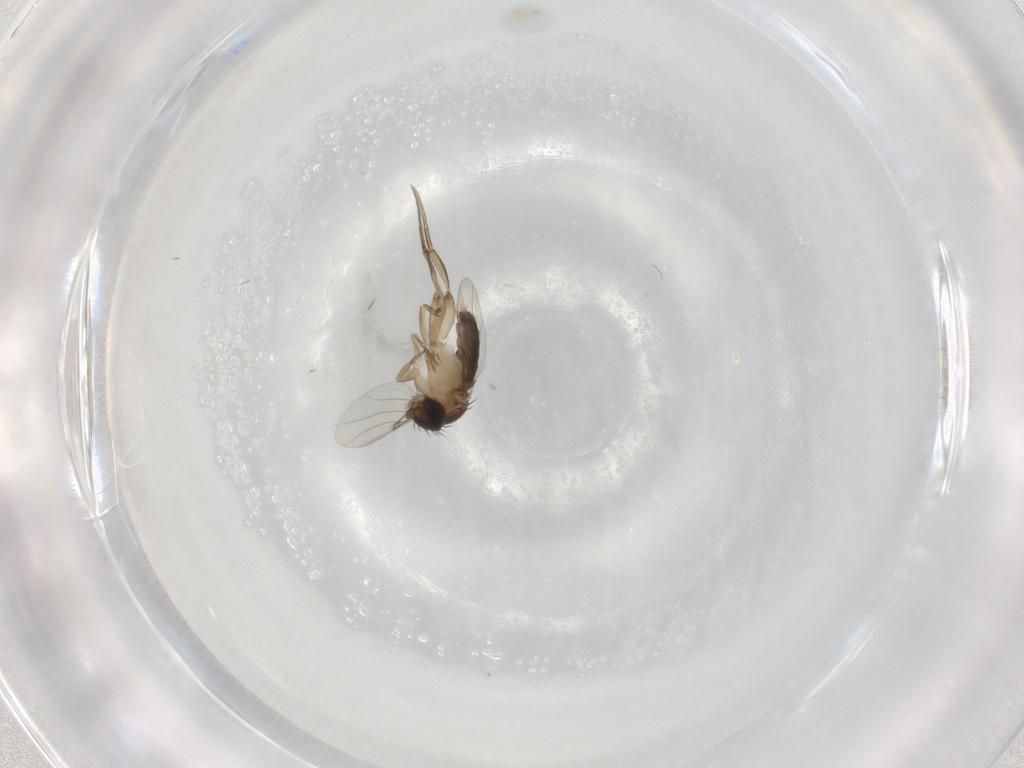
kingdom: Animalia
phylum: Arthropoda
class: Insecta
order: Diptera
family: Phoridae
